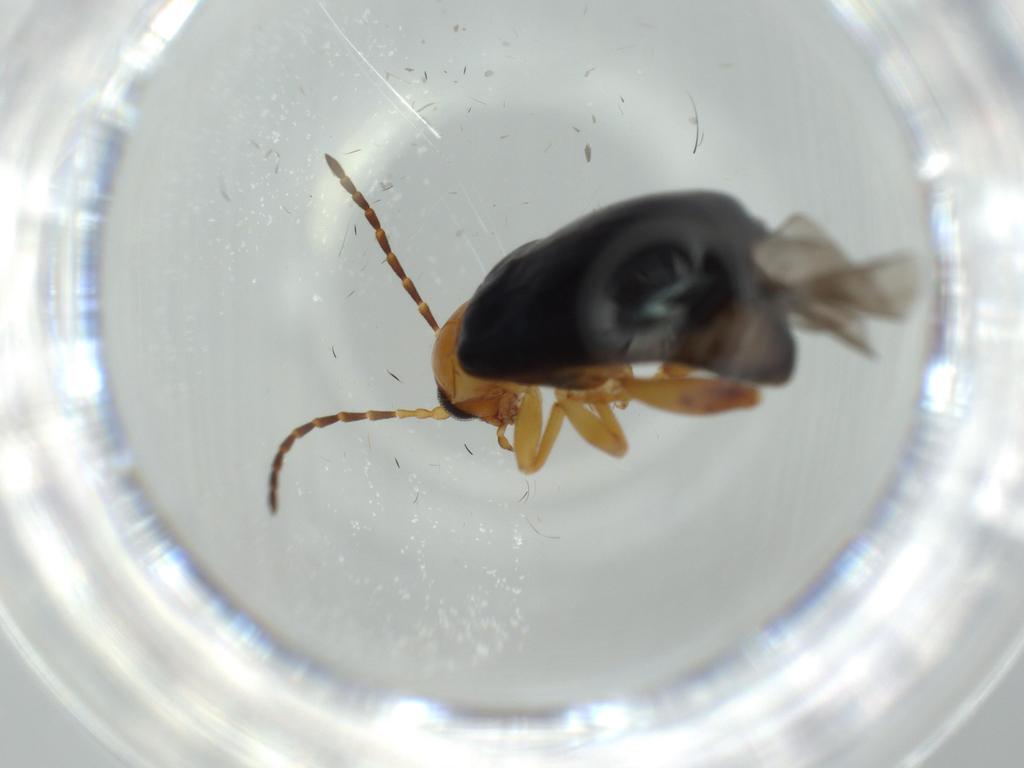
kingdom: Animalia
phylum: Arthropoda
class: Insecta
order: Coleoptera
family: Chrysomelidae
